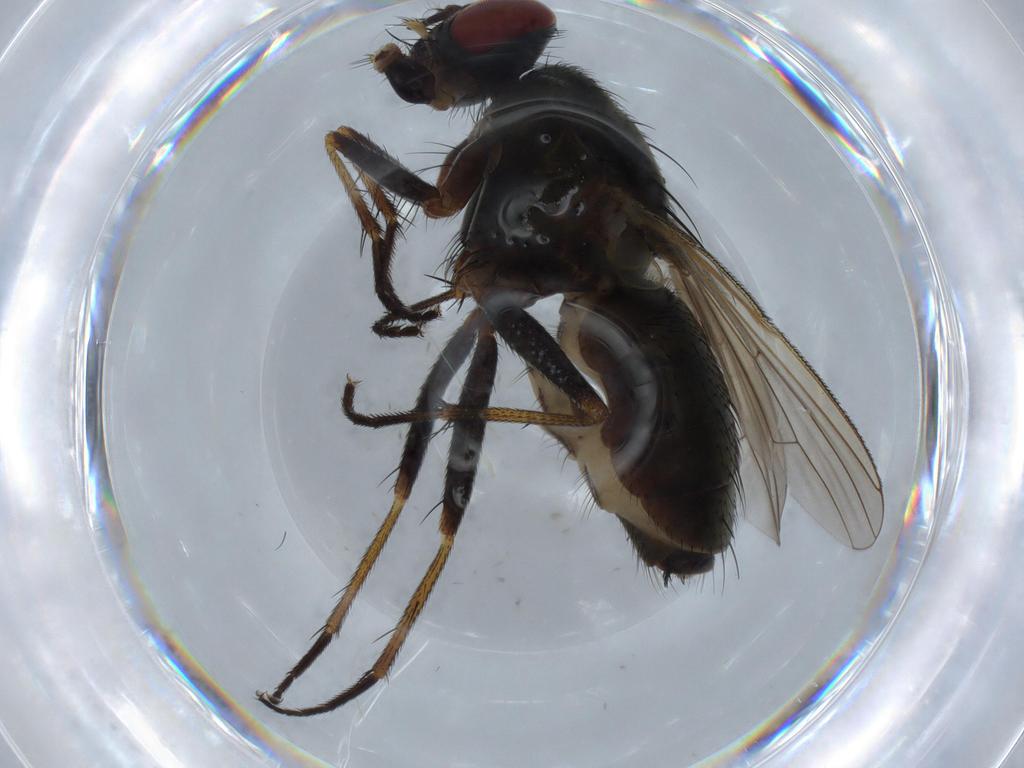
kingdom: Animalia
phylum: Arthropoda
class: Insecta
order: Diptera
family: Muscidae
